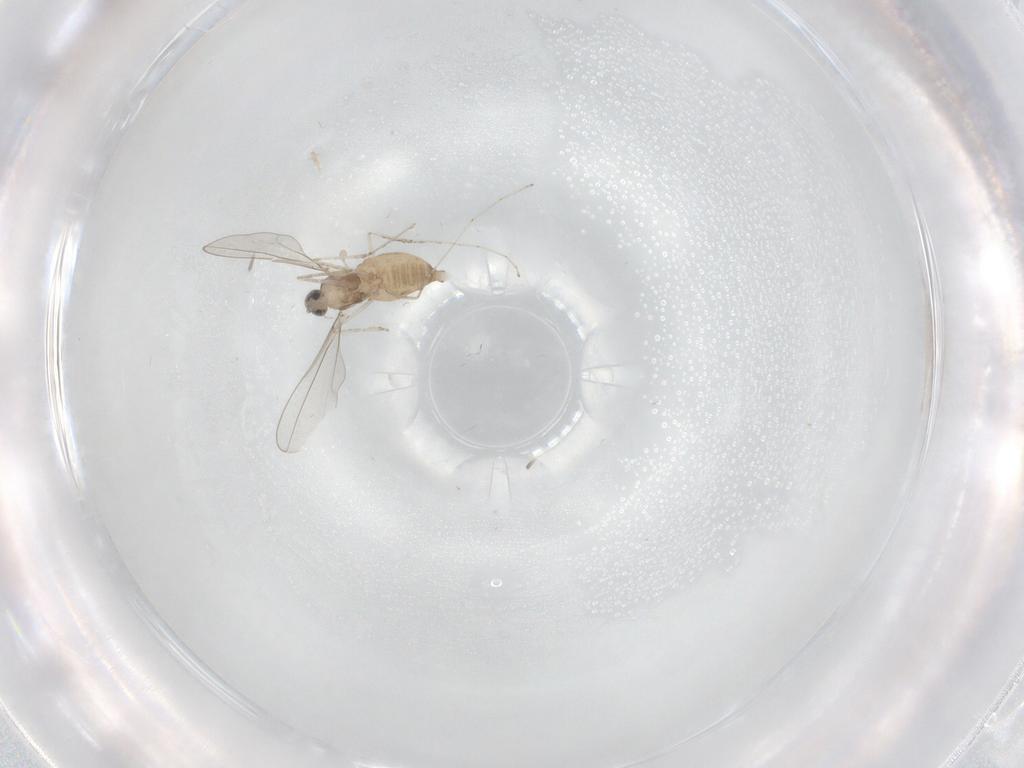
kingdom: Animalia
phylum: Arthropoda
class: Insecta
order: Diptera
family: Cecidomyiidae
